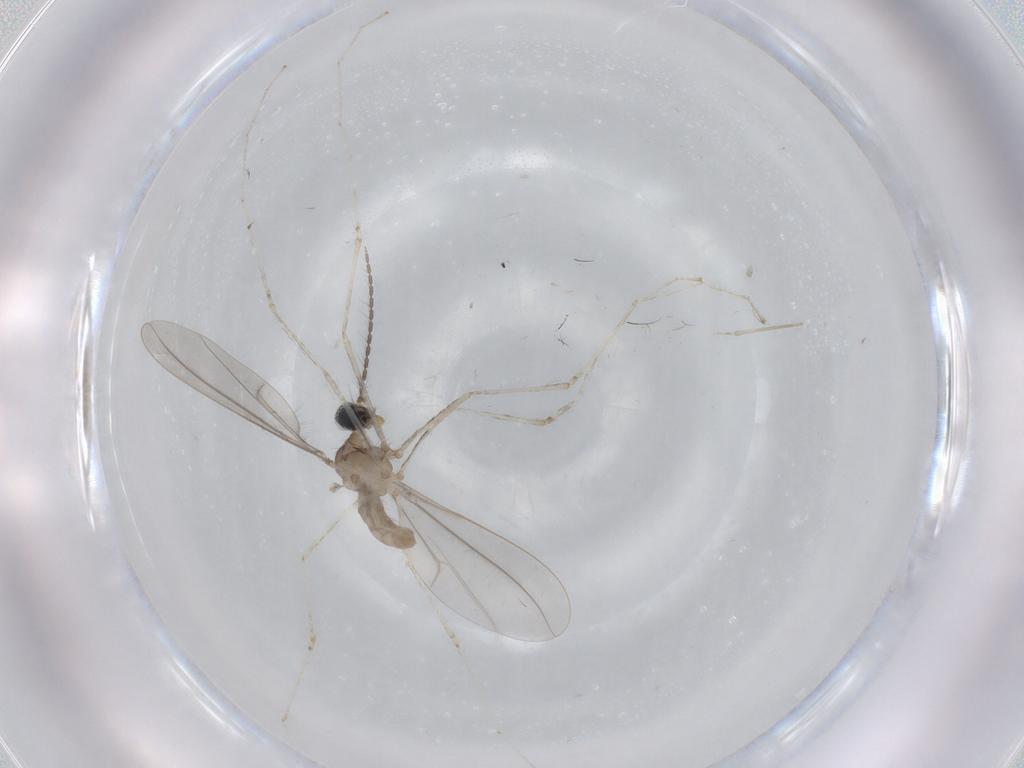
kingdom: Animalia
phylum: Arthropoda
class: Insecta
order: Diptera
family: Cecidomyiidae
